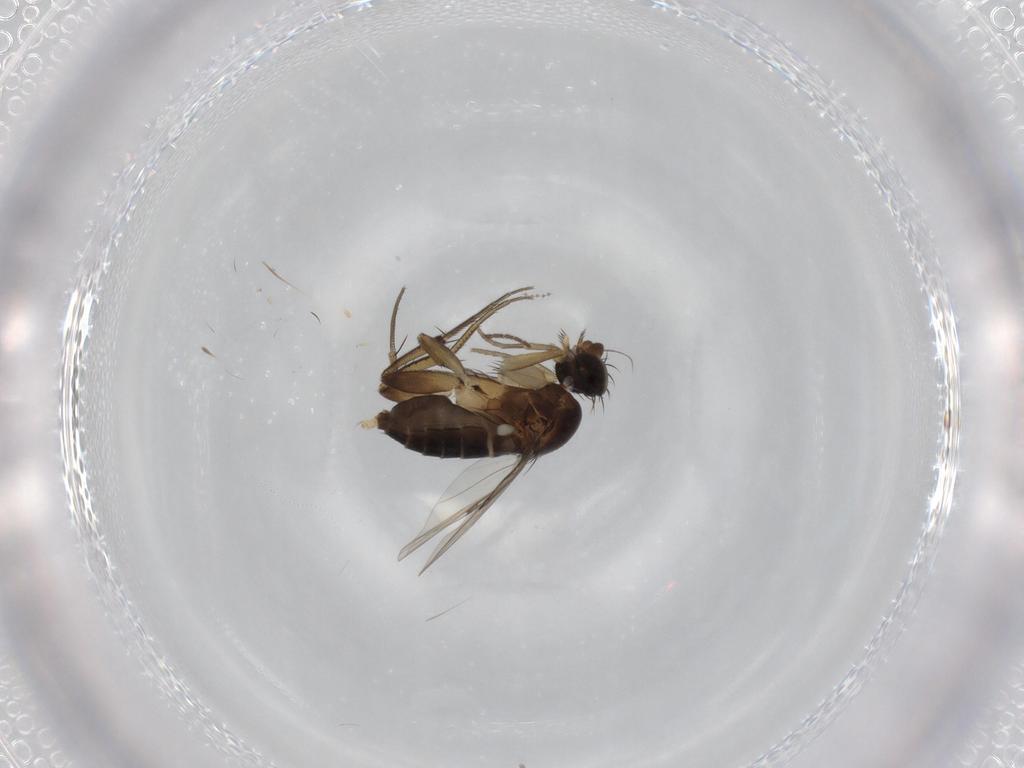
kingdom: Animalia
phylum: Arthropoda
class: Insecta
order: Diptera
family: Phoridae
